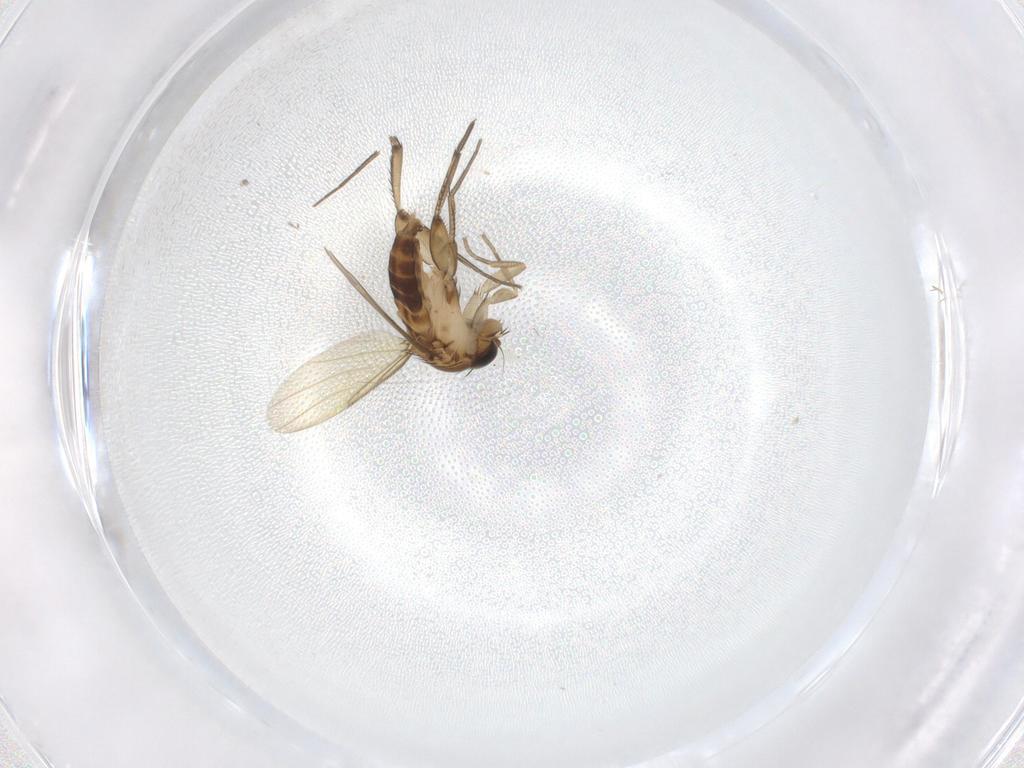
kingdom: Animalia
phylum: Arthropoda
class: Insecta
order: Diptera
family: Phoridae
